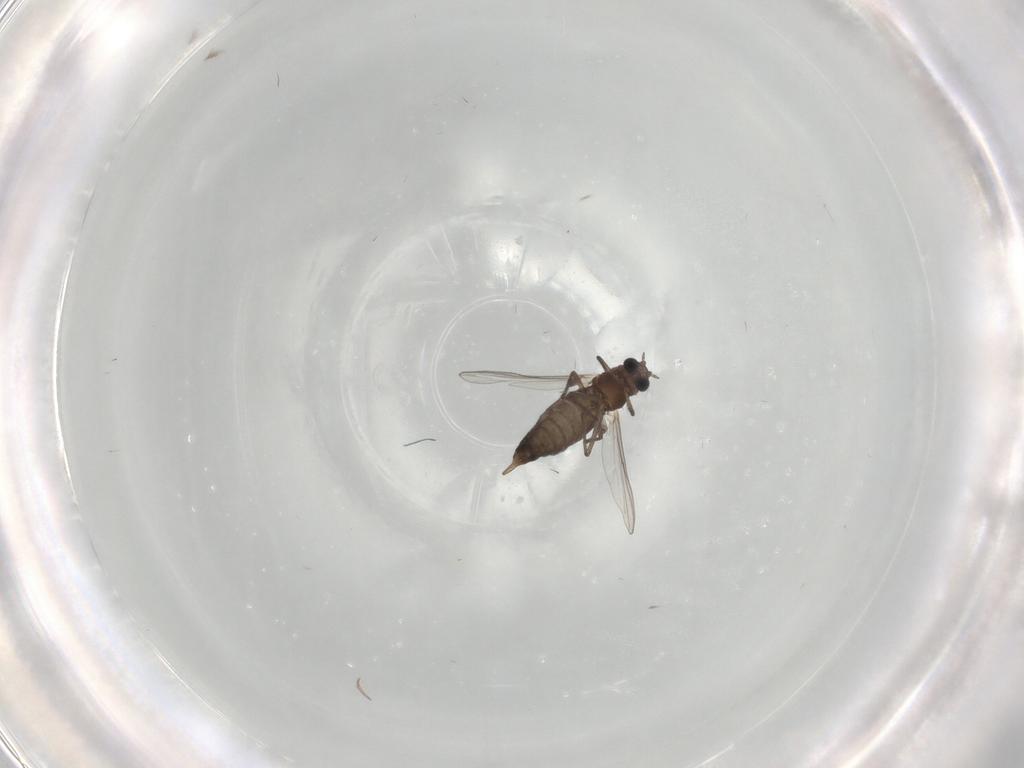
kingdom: Animalia
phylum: Arthropoda
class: Insecta
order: Diptera
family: Chironomidae
